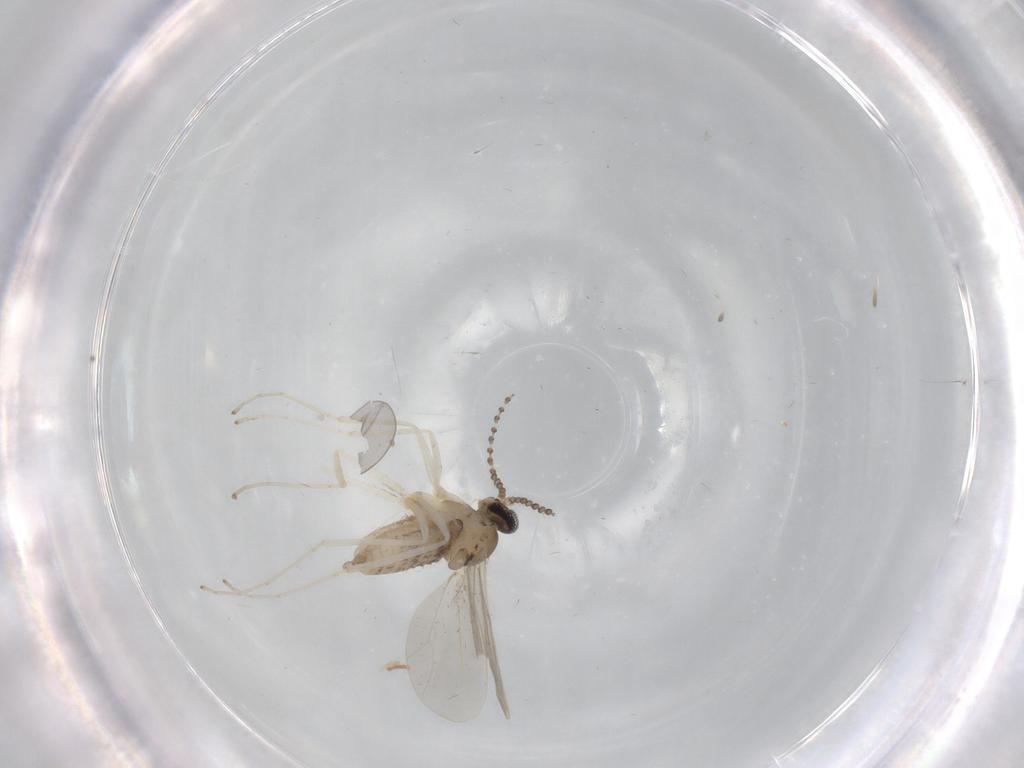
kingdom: Animalia
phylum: Arthropoda
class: Insecta
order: Diptera
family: Cecidomyiidae
